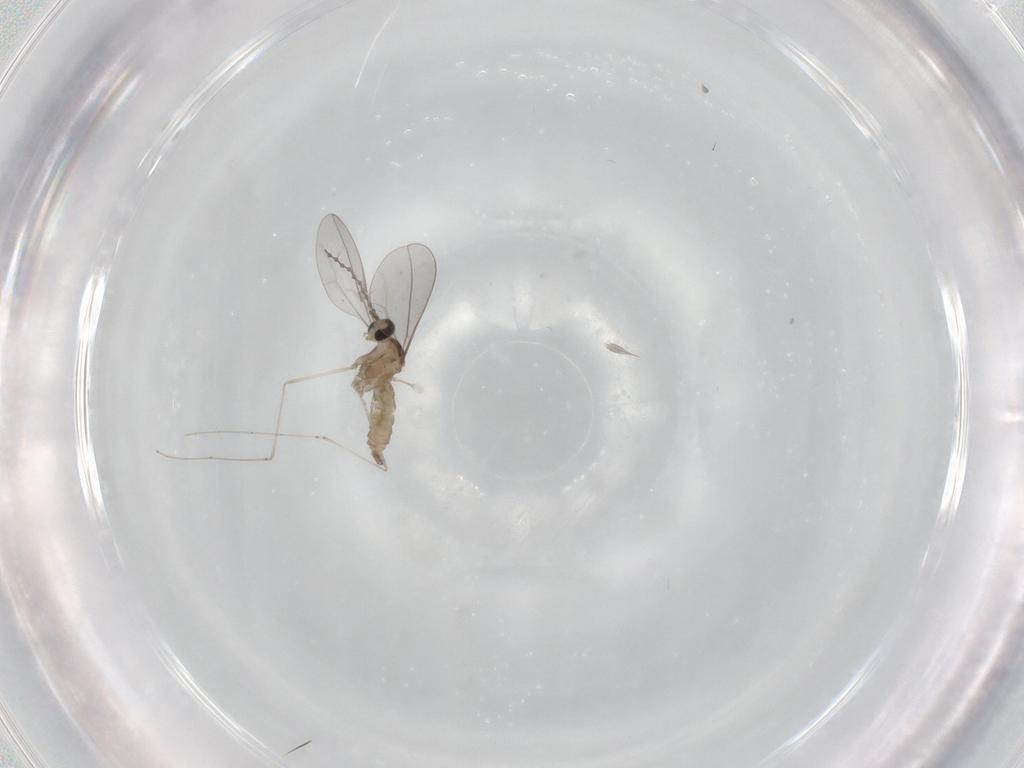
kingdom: Animalia
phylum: Arthropoda
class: Insecta
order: Diptera
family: Cecidomyiidae
